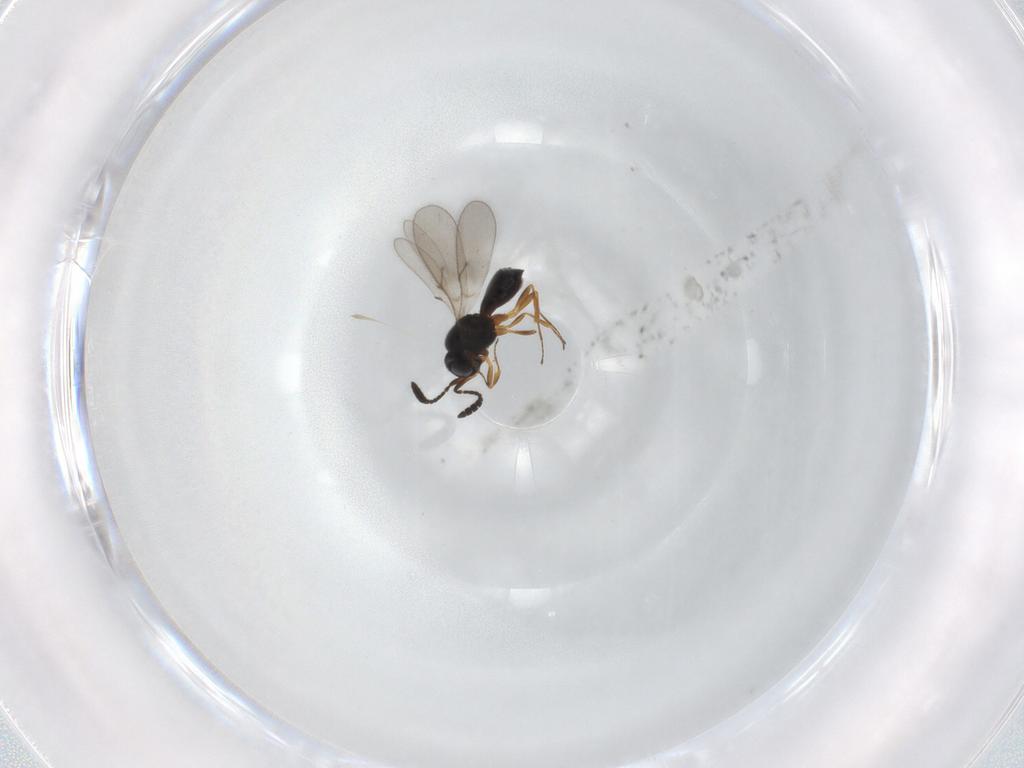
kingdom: Animalia
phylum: Arthropoda
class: Insecta
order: Hymenoptera
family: Scelionidae
